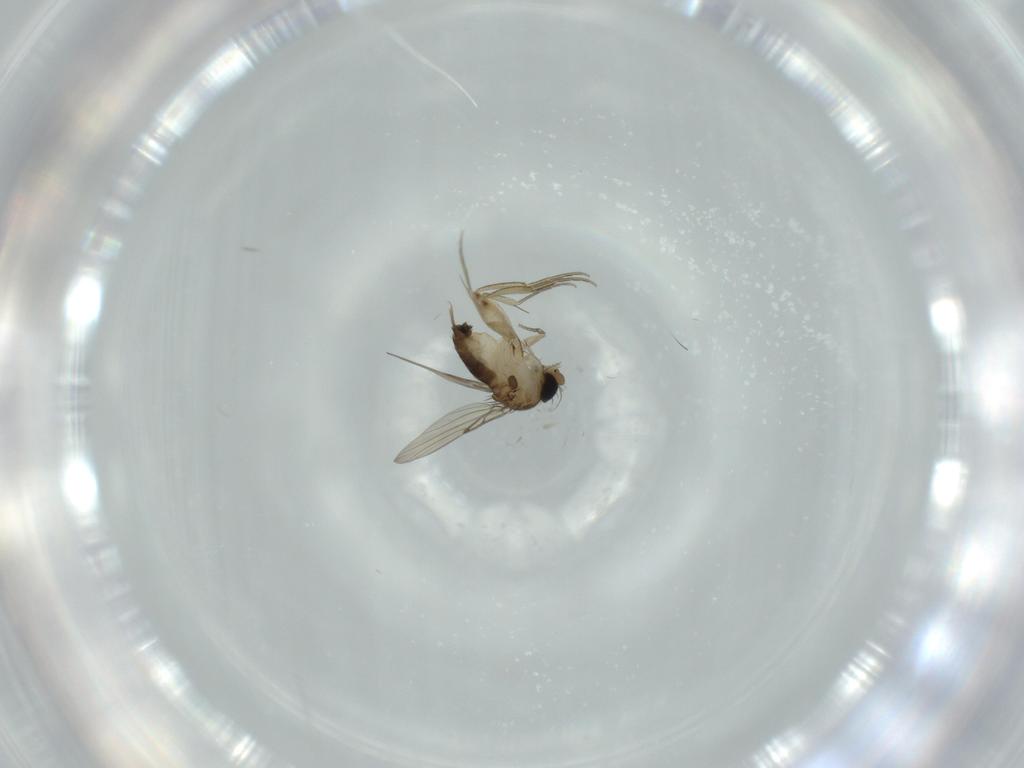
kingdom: Animalia
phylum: Arthropoda
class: Insecta
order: Diptera
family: Phoridae
